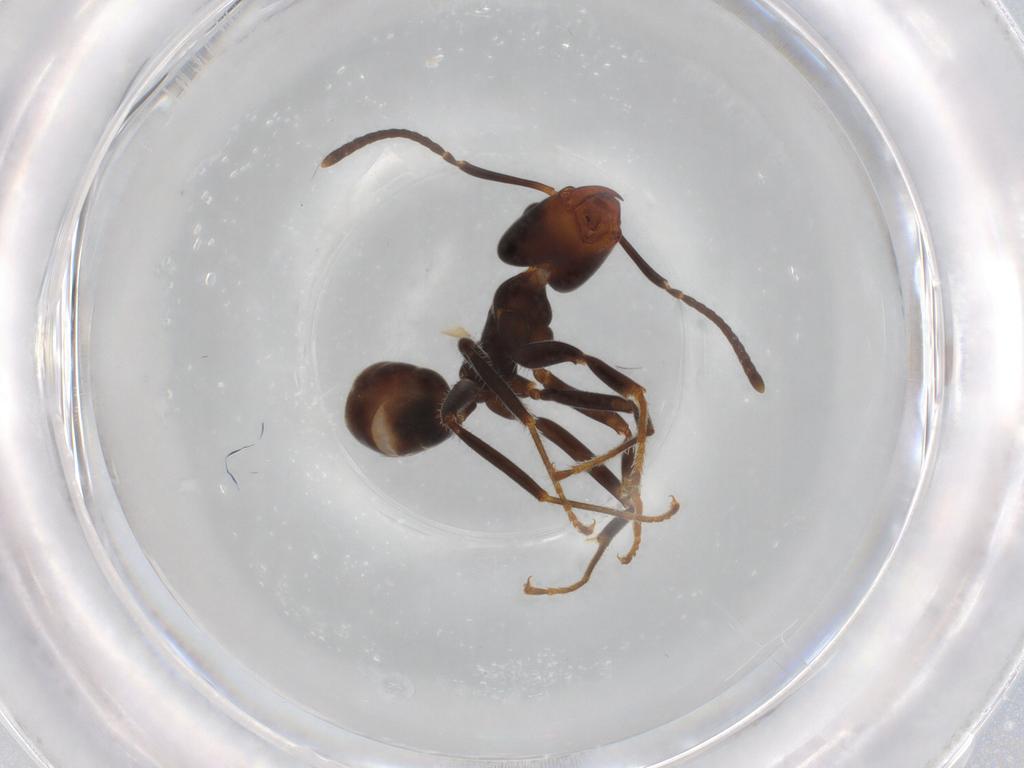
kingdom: Animalia
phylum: Arthropoda
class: Insecta
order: Hymenoptera
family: Formicidae
